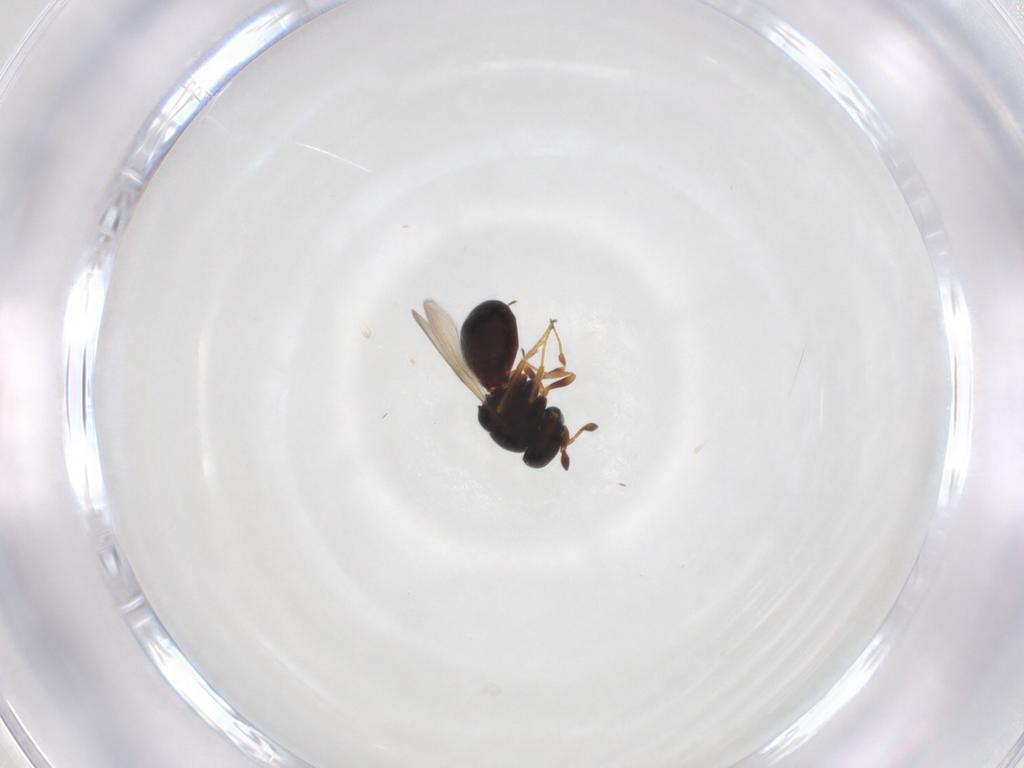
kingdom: Animalia
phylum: Arthropoda
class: Insecta
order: Hymenoptera
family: Scelionidae
